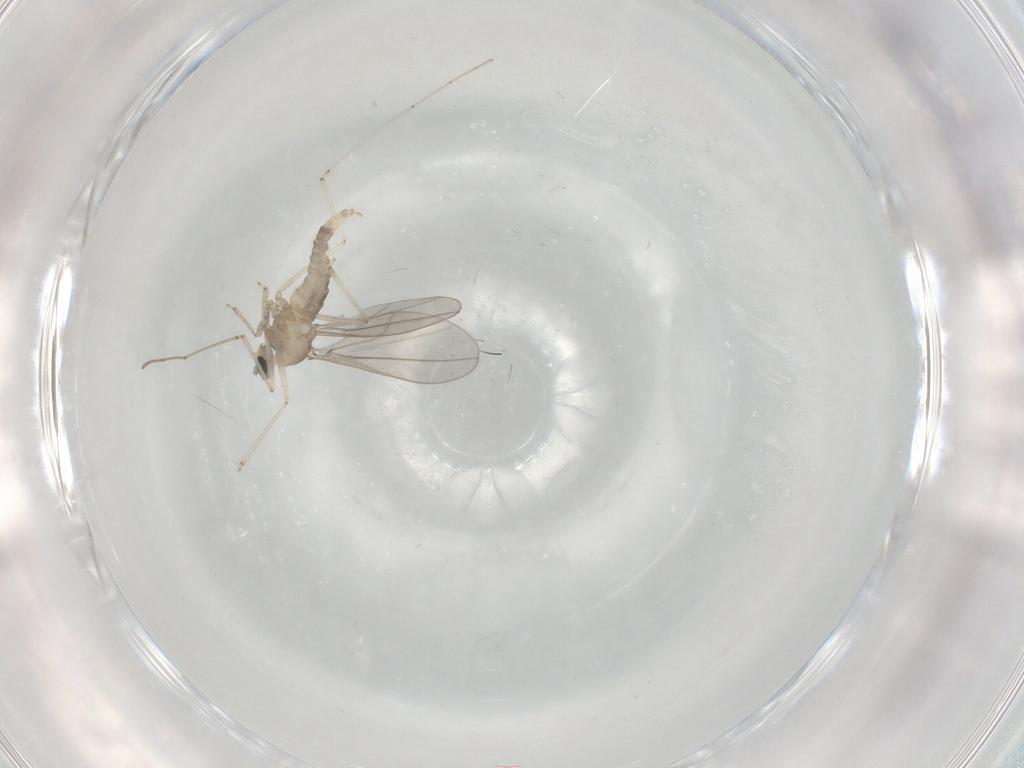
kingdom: Animalia
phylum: Arthropoda
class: Insecta
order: Diptera
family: Cecidomyiidae
